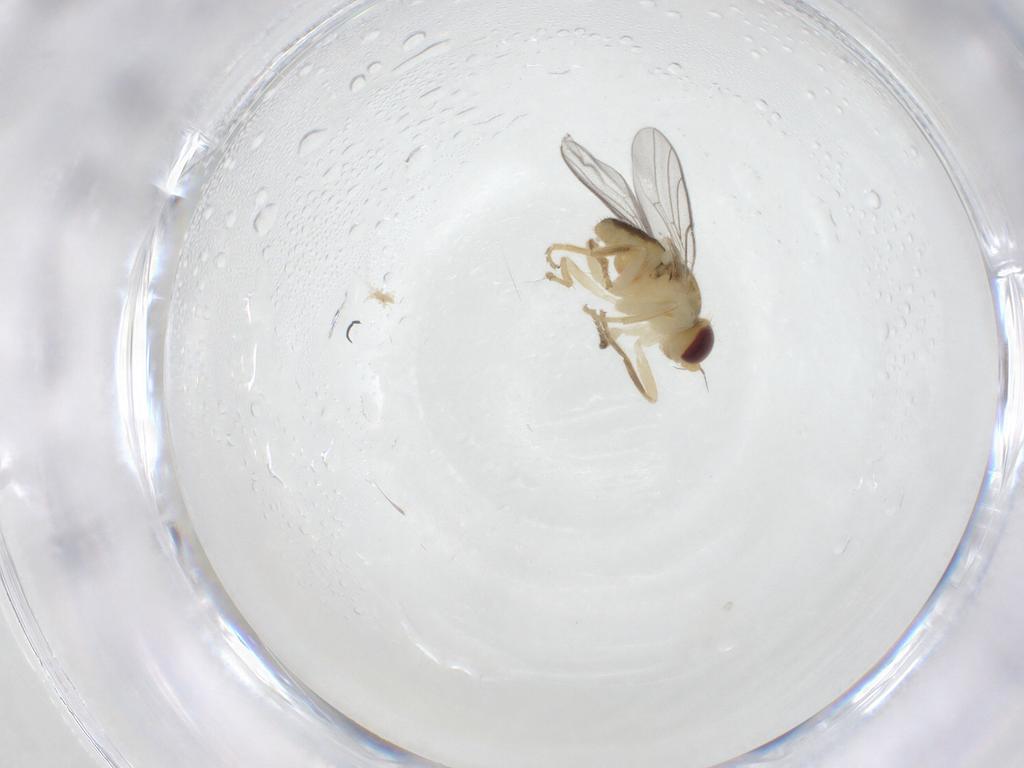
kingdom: Animalia
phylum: Arthropoda
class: Insecta
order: Diptera
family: Chloropidae
